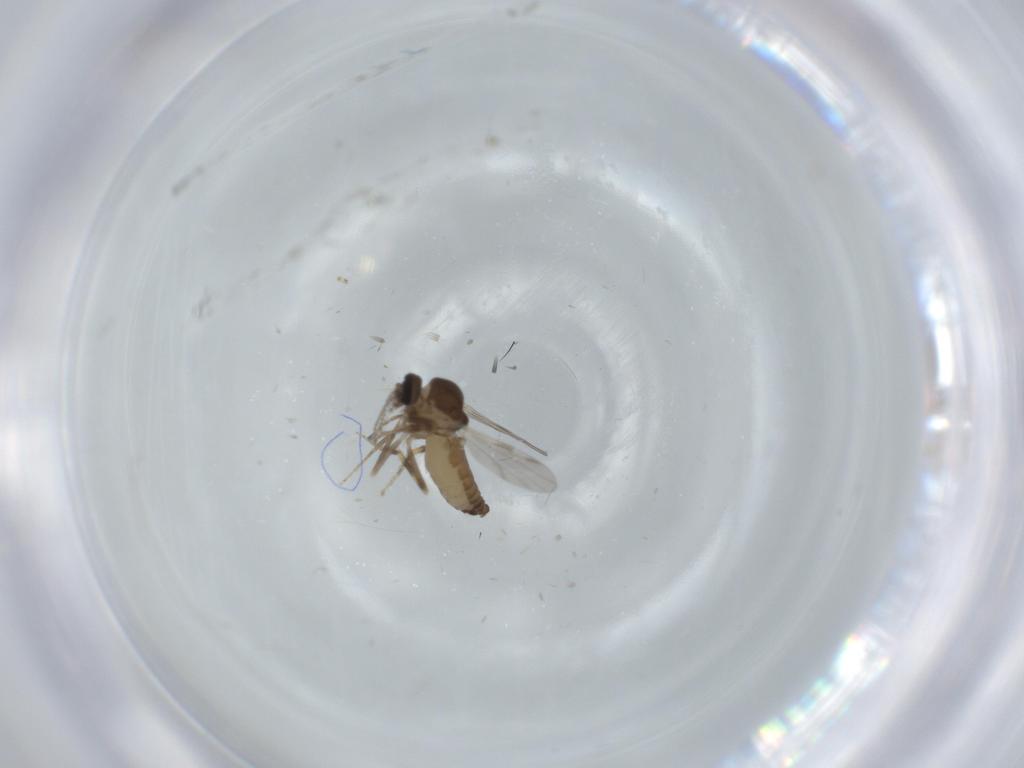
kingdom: Animalia
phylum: Arthropoda
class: Insecta
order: Diptera
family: Ceratopogonidae
